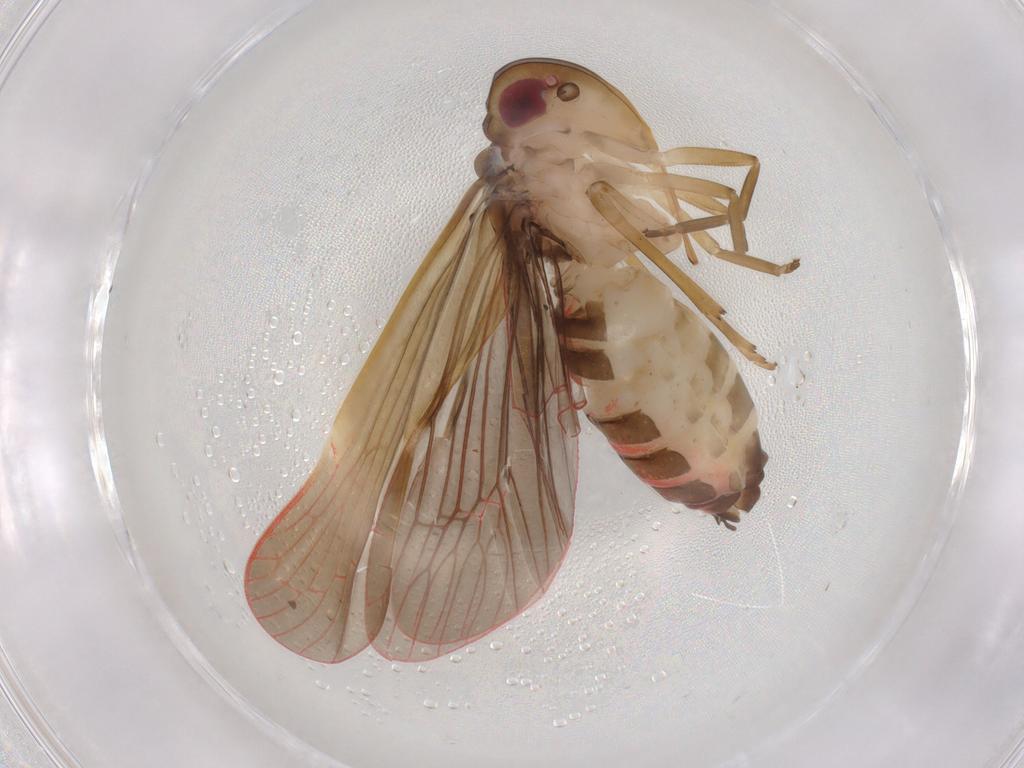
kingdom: Animalia
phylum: Arthropoda
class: Insecta
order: Hemiptera
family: Achilidae
